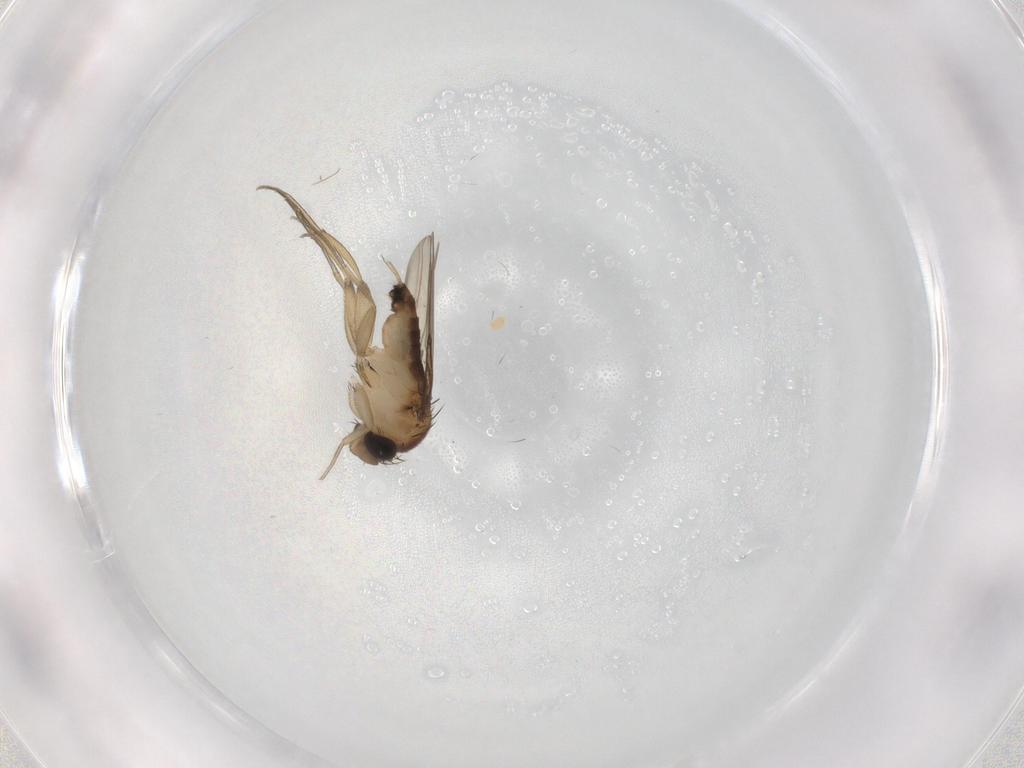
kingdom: Animalia
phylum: Arthropoda
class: Insecta
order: Diptera
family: Phoridae
